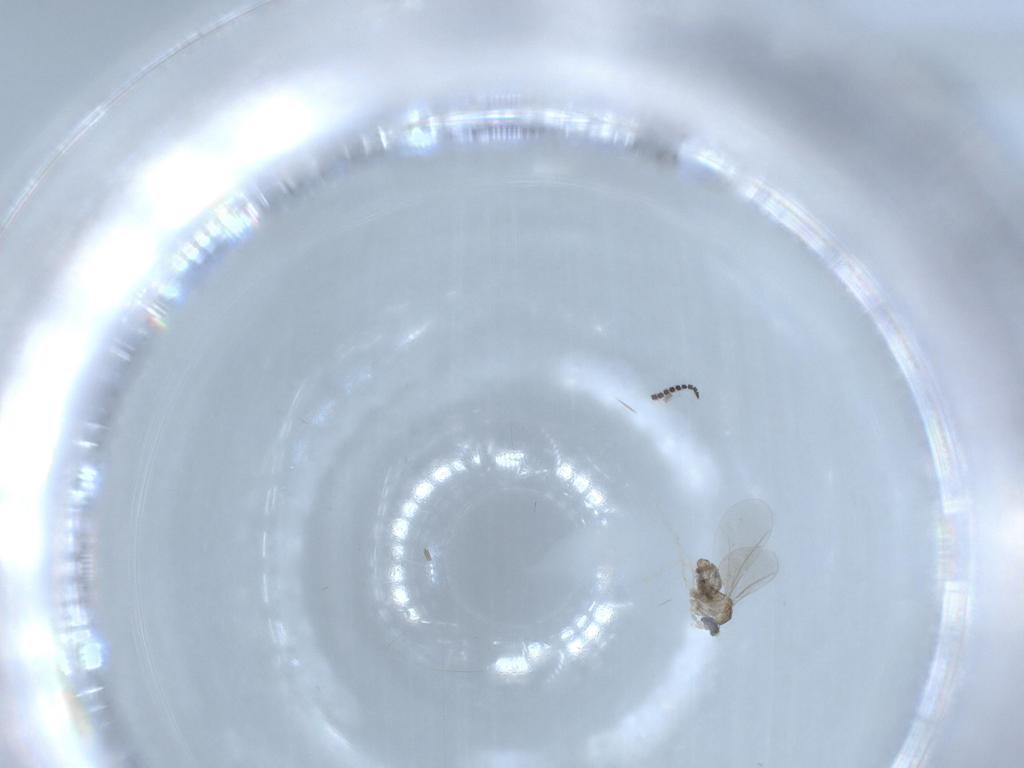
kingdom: Animalia
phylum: Arthropoda
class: Insecta
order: Diptera
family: Cecidomyiidae
